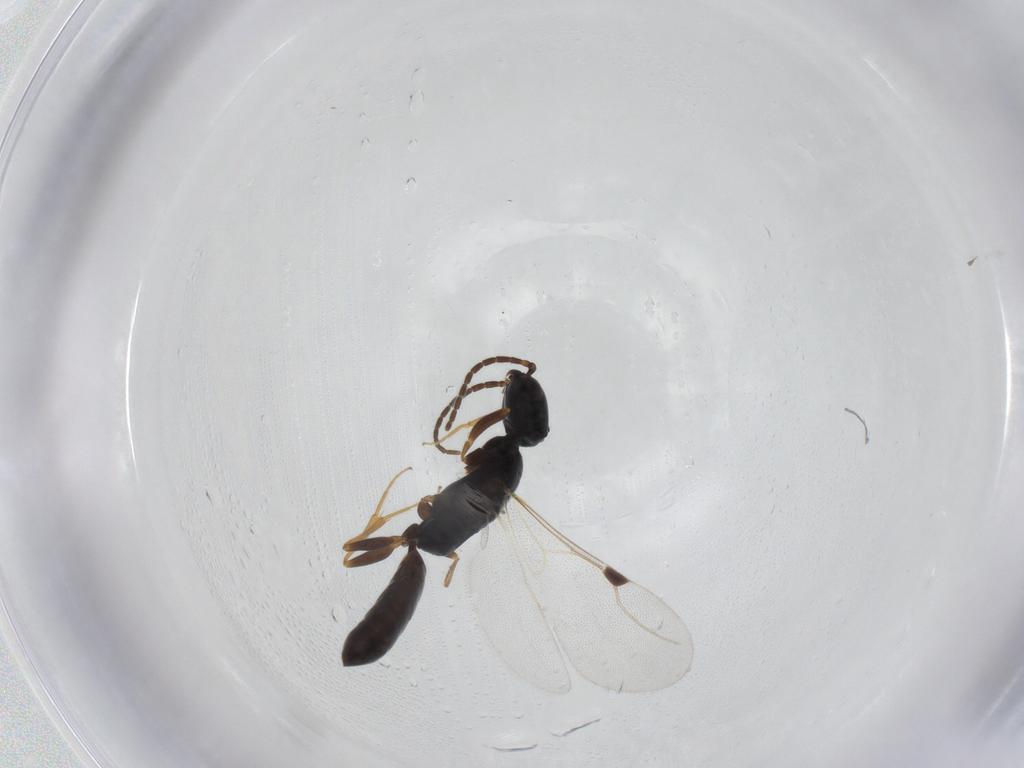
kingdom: Animalia
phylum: Arthropoda
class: Insecta
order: Hymenoptera
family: Bethylidae
